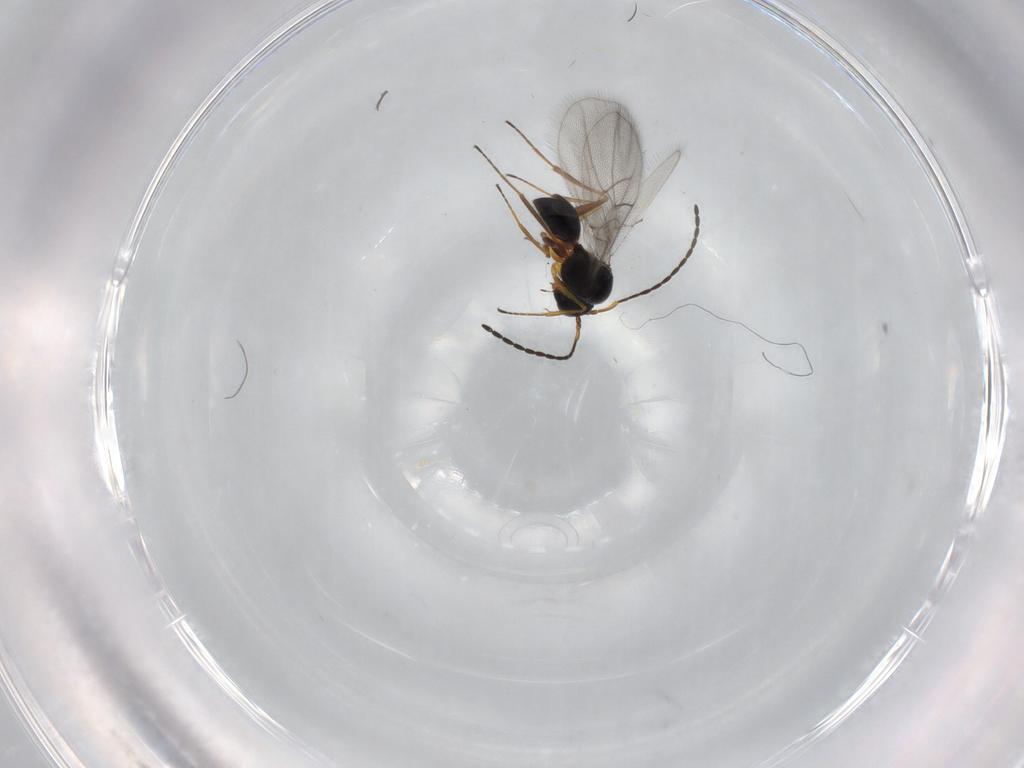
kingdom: Animalia
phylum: Arthropoda
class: Insecta
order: Hymenoptera
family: Figitidae
